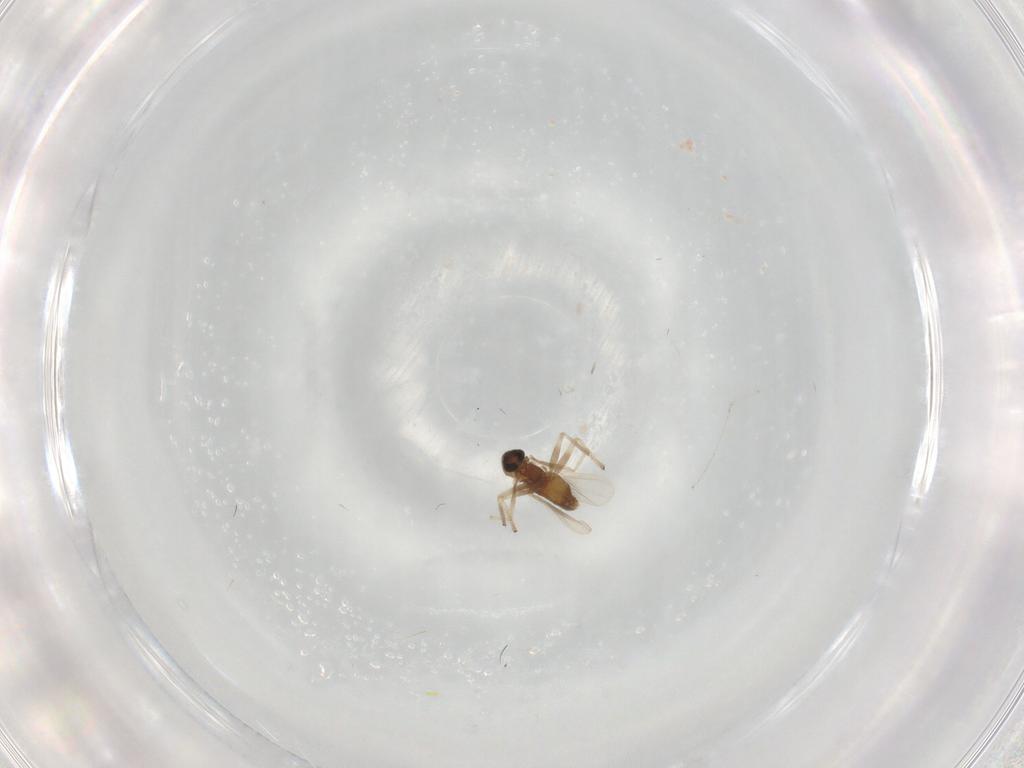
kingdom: Animalia
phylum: Arthropoda
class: Insecta
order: Diptera
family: Chironomidae
